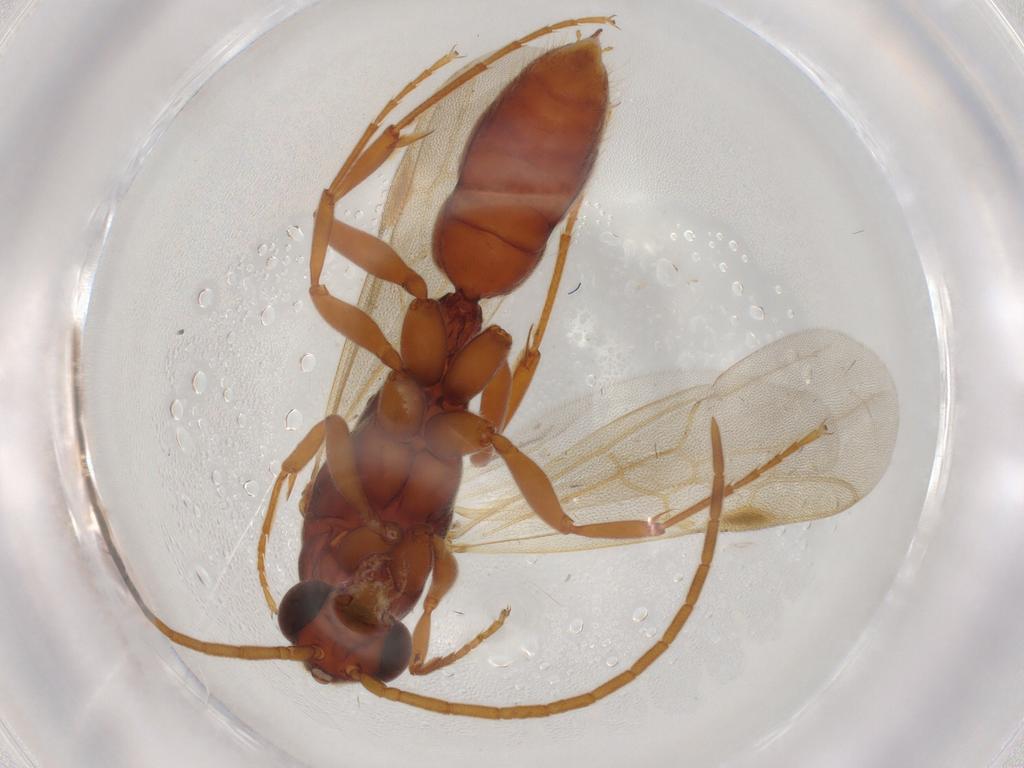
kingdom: Animalia
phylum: Arthropoda
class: Insecta
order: Hymenoptera
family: Formicidae
